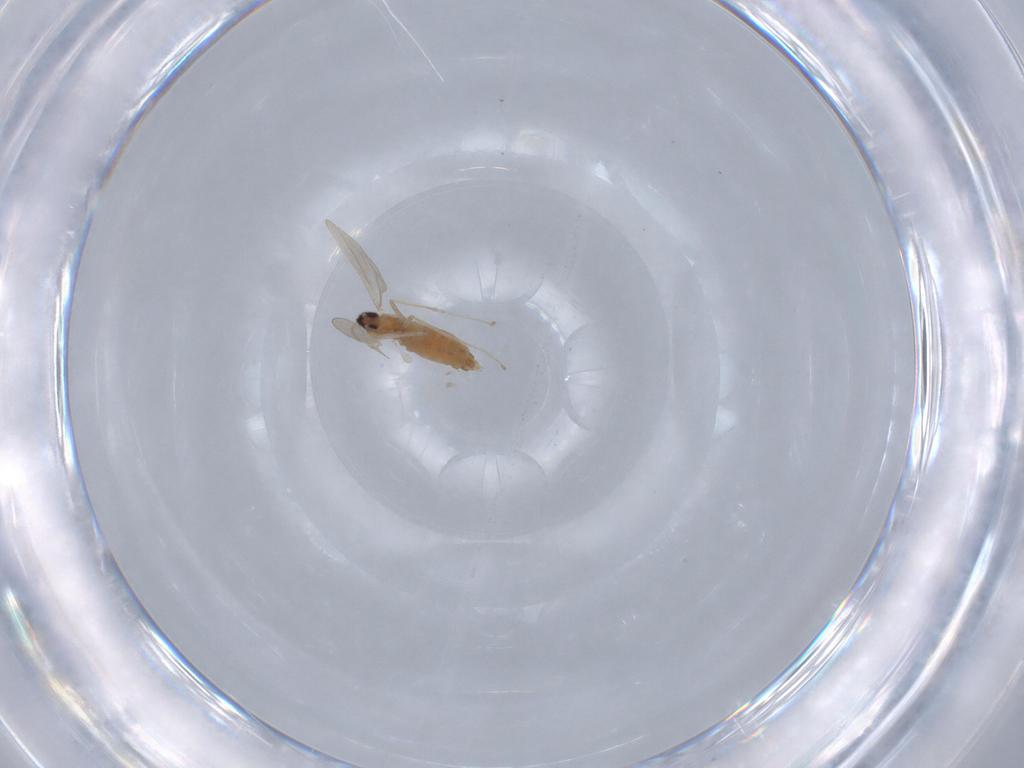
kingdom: Animalia
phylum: Arthropoda
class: Insecta
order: Diptera
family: Cecidomyiidae
